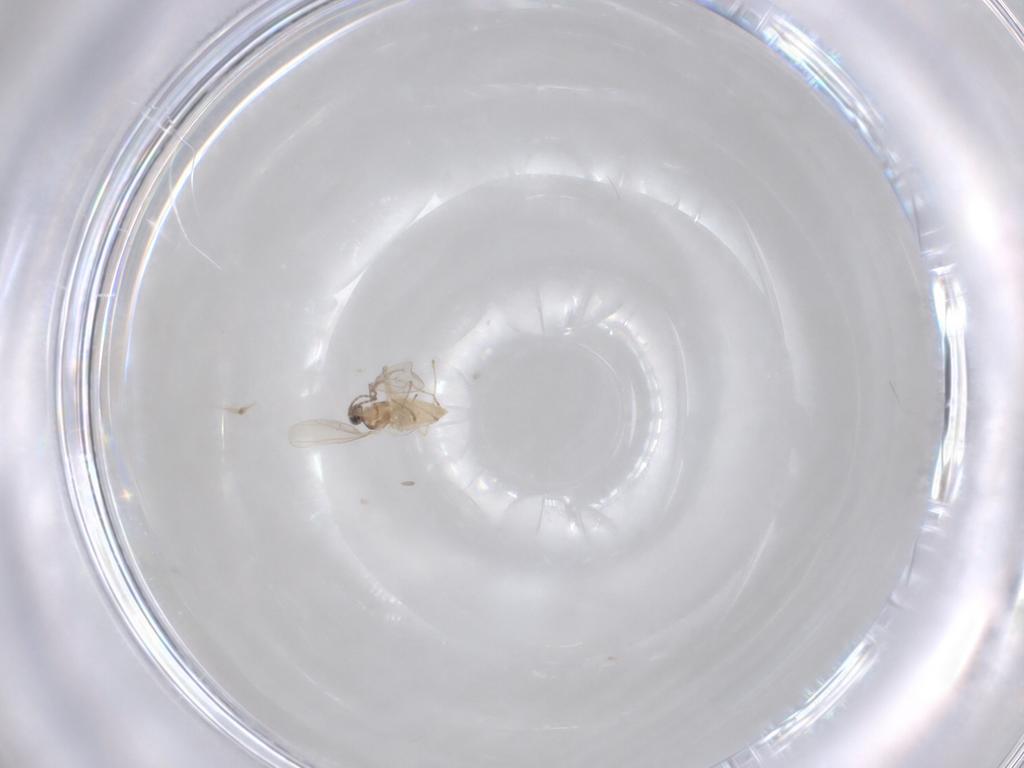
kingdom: Animalia
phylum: Arthropoda
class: Insecta
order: Diptera
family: Cecidomyiidae
